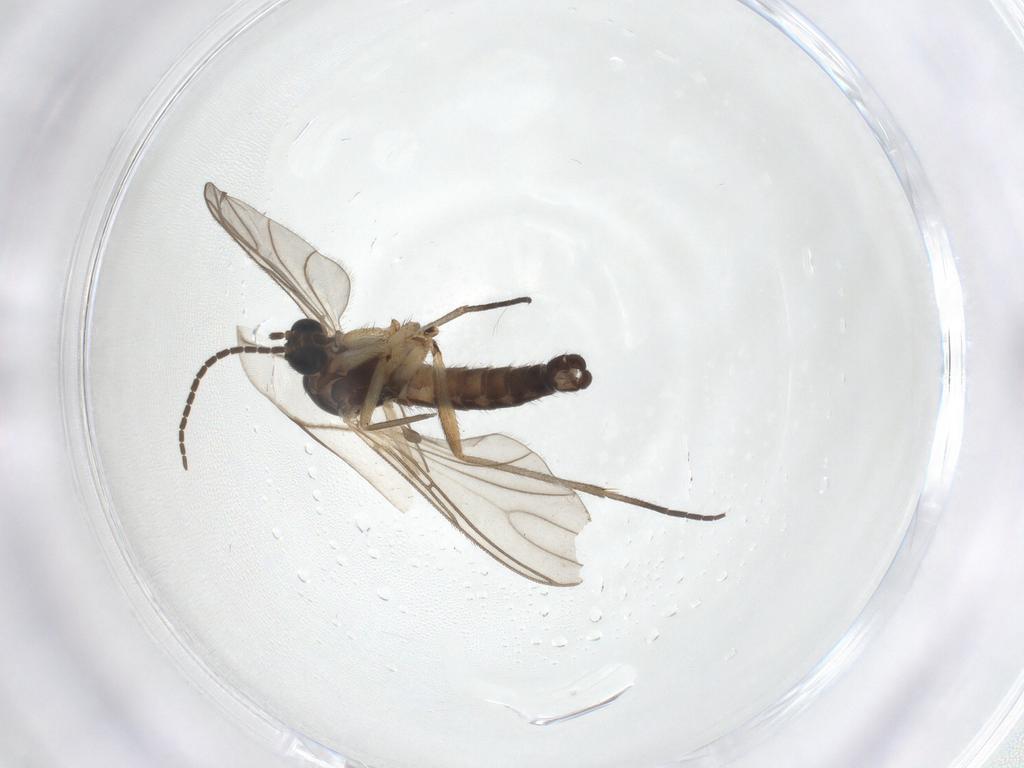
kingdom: Animalia
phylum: Arthropoda
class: Insecta
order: Diptera
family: Sciaridae
